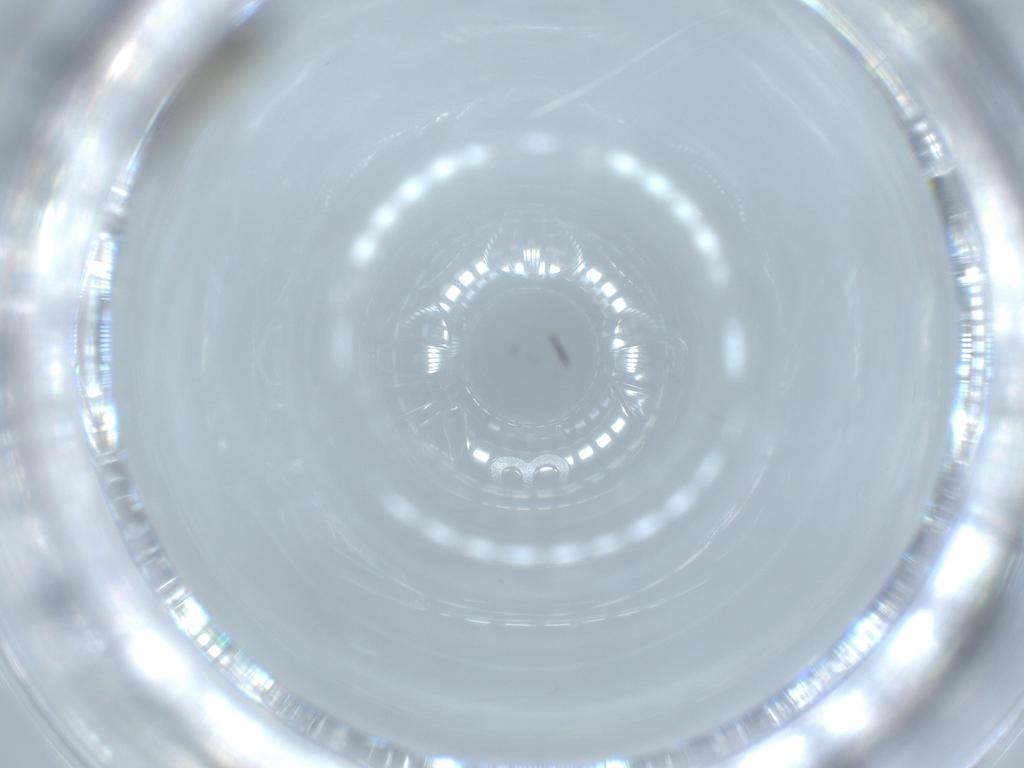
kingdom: Animalia
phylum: Arthropoda
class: Insecta
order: Diptera
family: Sciaridae
